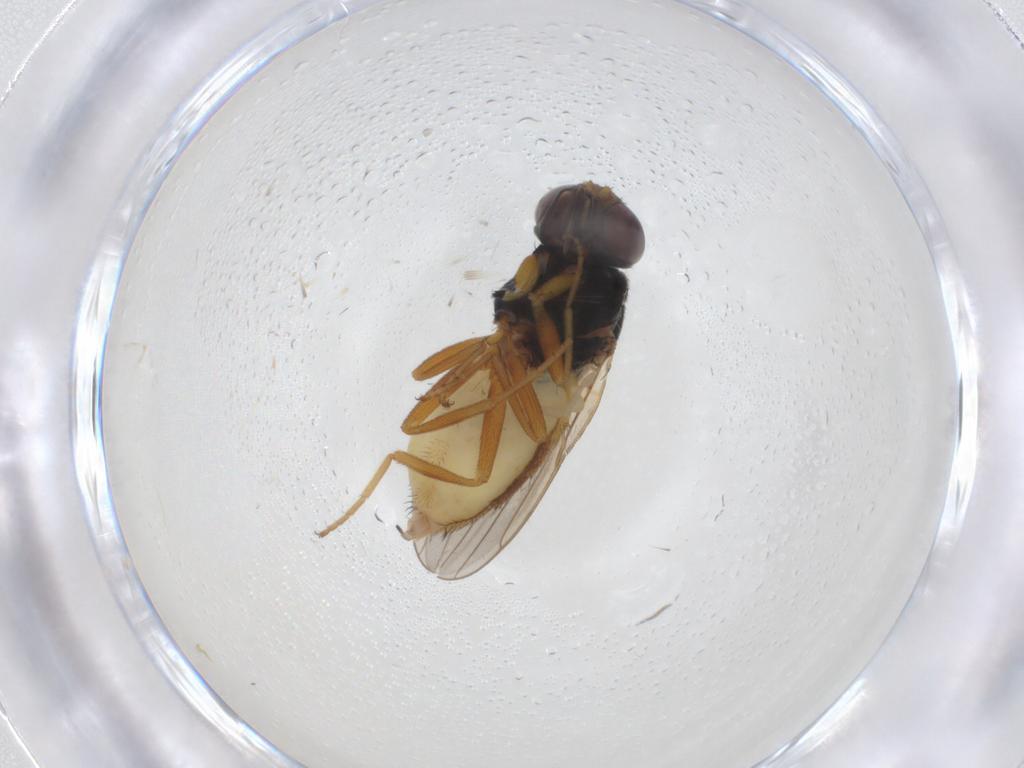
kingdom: Animalia
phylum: Arthropoda
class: Insecta
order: Diptera
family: Chloropidae
